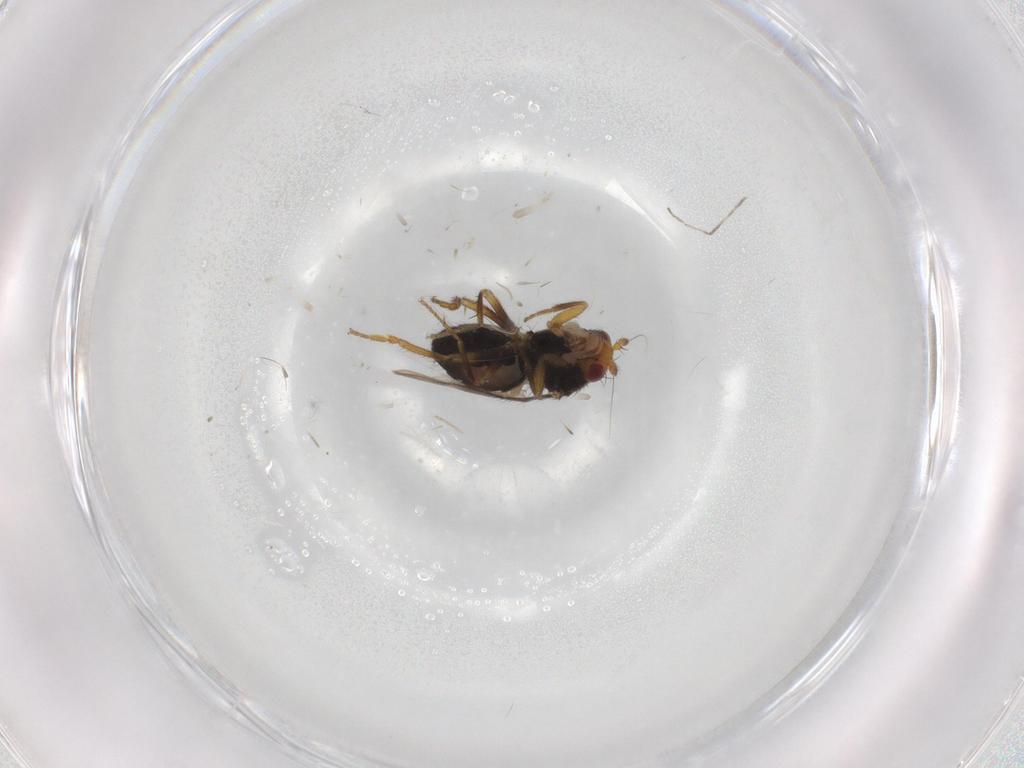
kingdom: Animalia
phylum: Arthropoda
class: Insecta
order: Diptera
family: Sphaeroceridae
